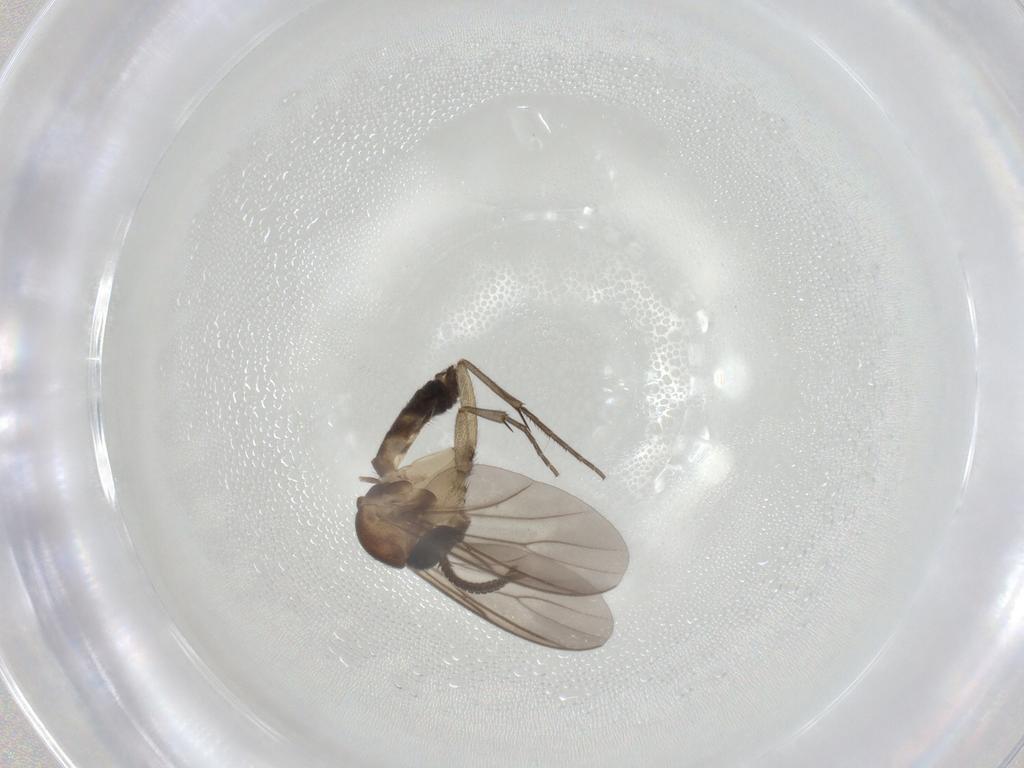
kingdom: Animalia
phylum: Arthropoda
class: Insecta
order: Diptera
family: Mycetophilidae
